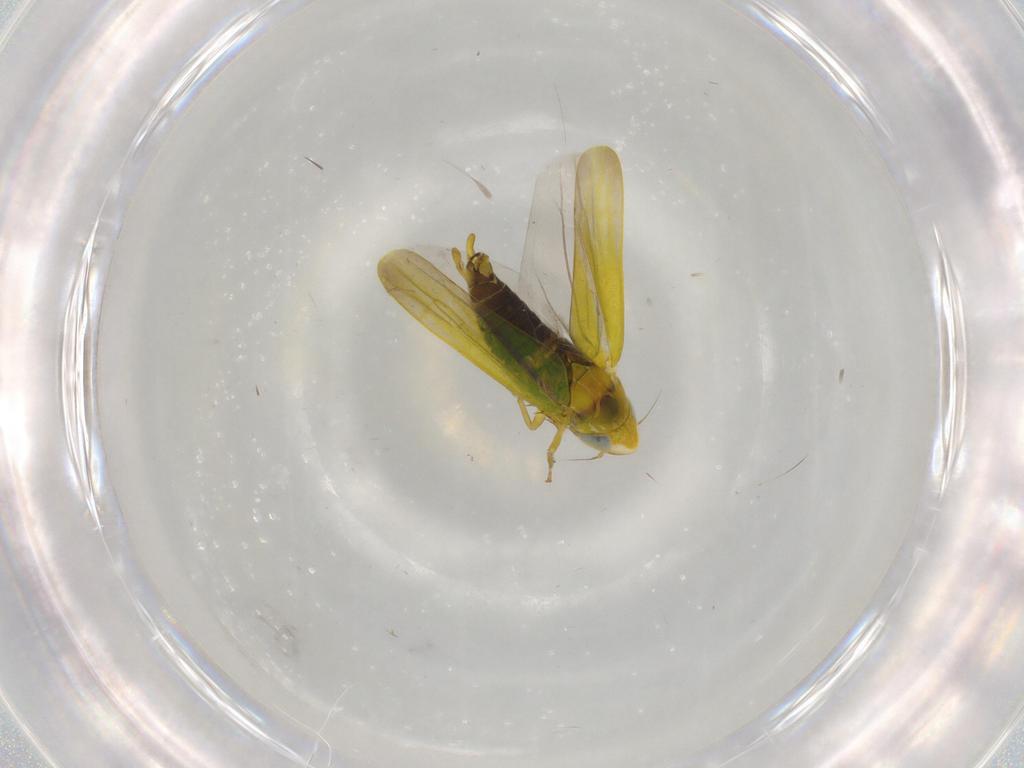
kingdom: Animalia
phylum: Arthropoda
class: Insecta
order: Hemiptera
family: Cicadellidae
